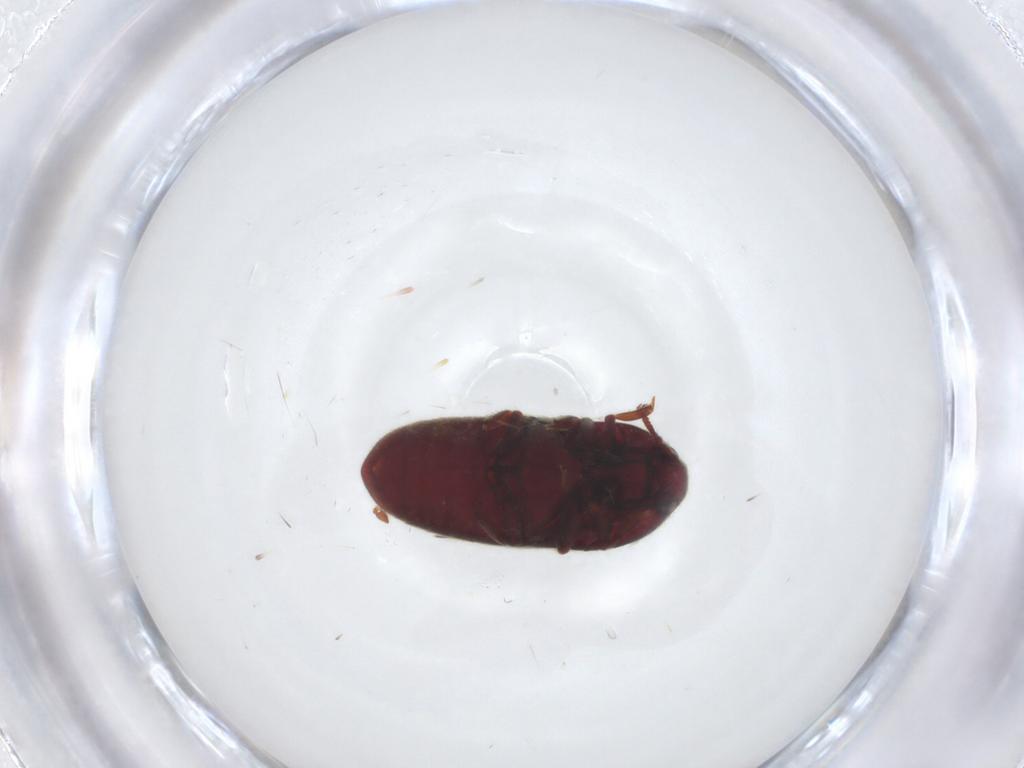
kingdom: Animalia
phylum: Arthropoda
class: Insecta
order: Coleoptera
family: Throscidae
